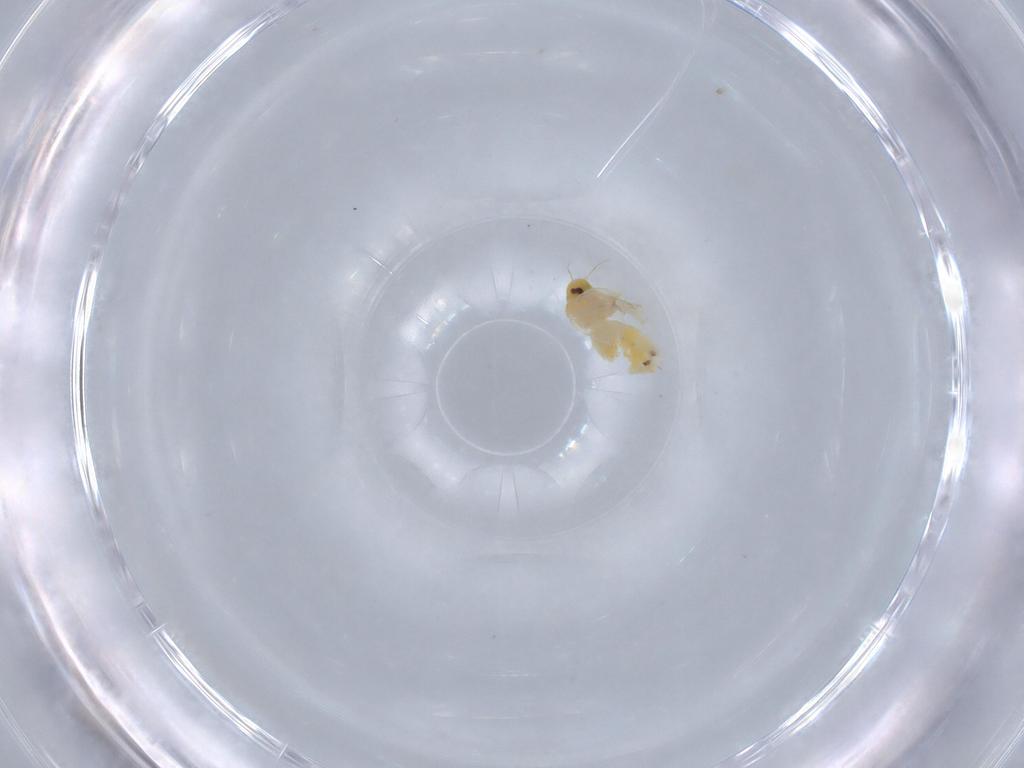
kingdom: Animalia
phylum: Arthropoda
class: Insecta
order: Hemiptera
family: Aleyrodidae
